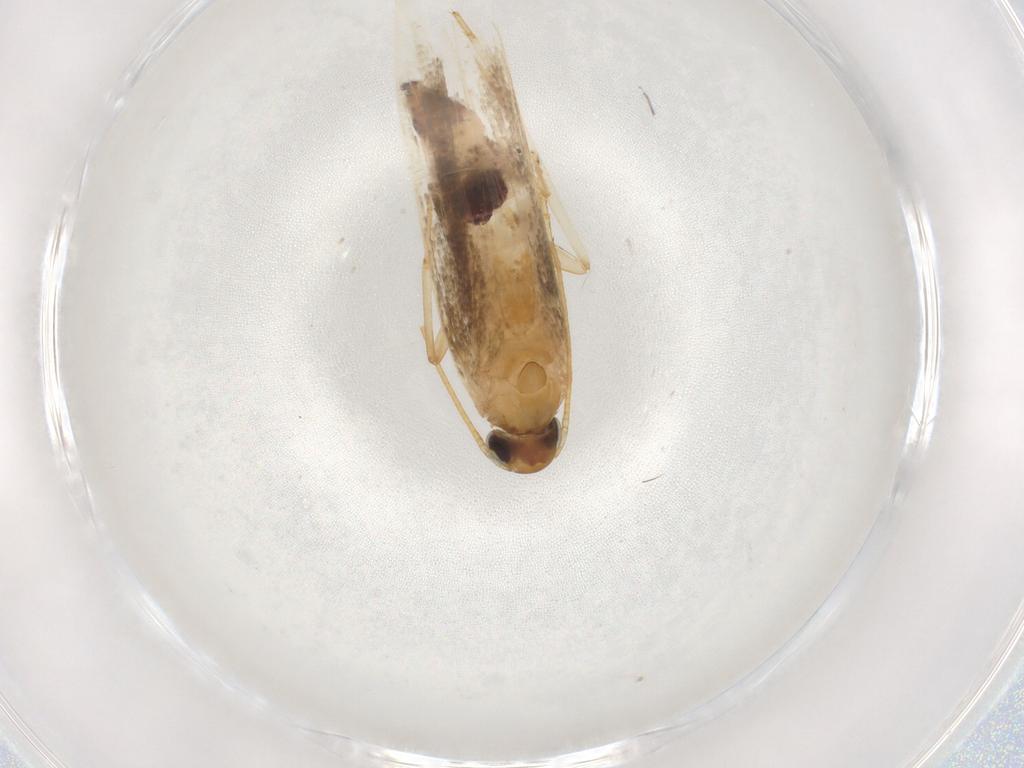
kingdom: Animalia
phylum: Arthropoda
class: Insecta
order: Lepidoptera
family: Gelechiidae
